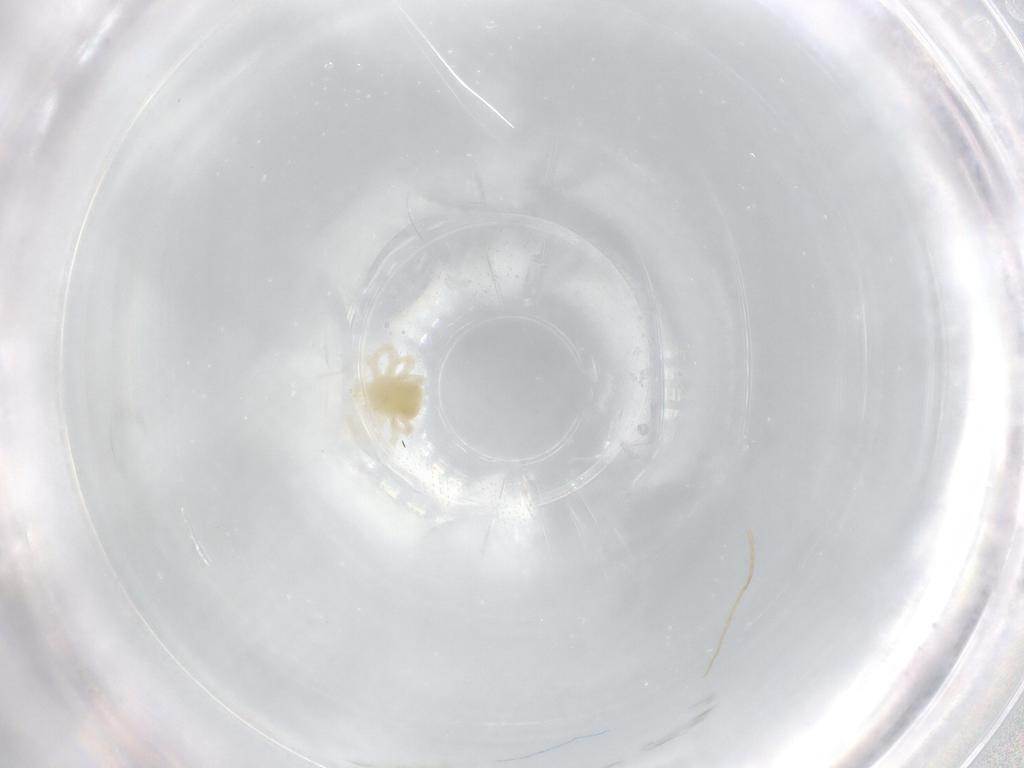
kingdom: Animalia
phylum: Arthropoda
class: Arachnida
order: Trombidiformes
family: Anystidae
